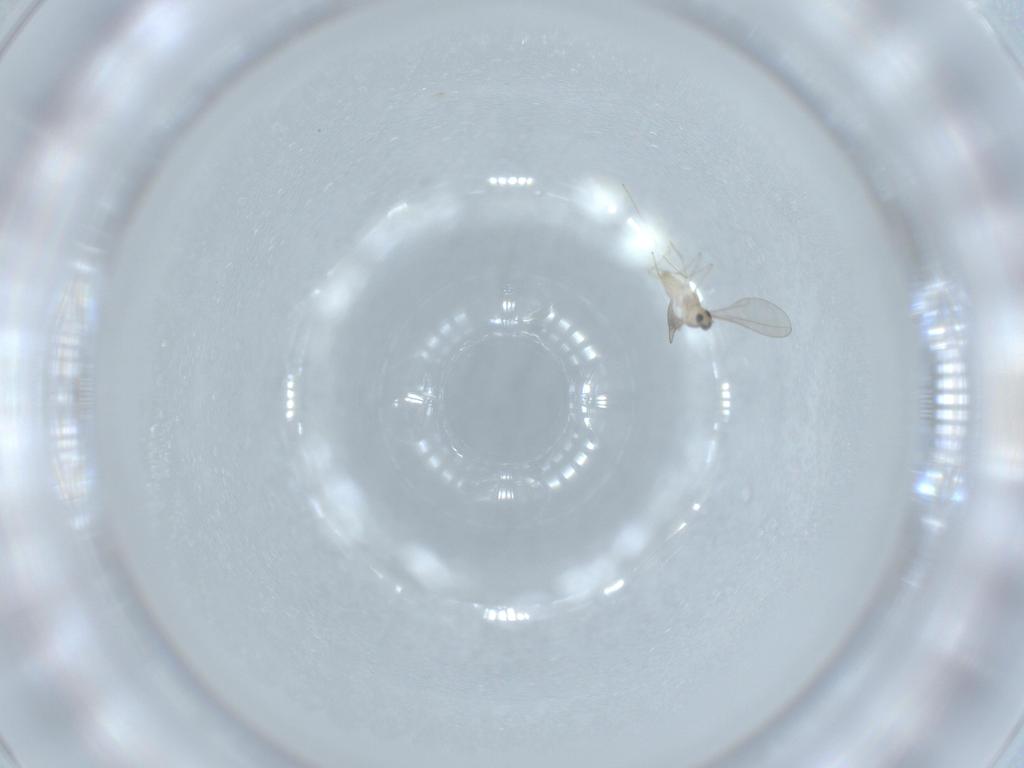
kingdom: Animalia
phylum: Arthropoda
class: Insecta
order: Diptera
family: Cecidomyiidae
